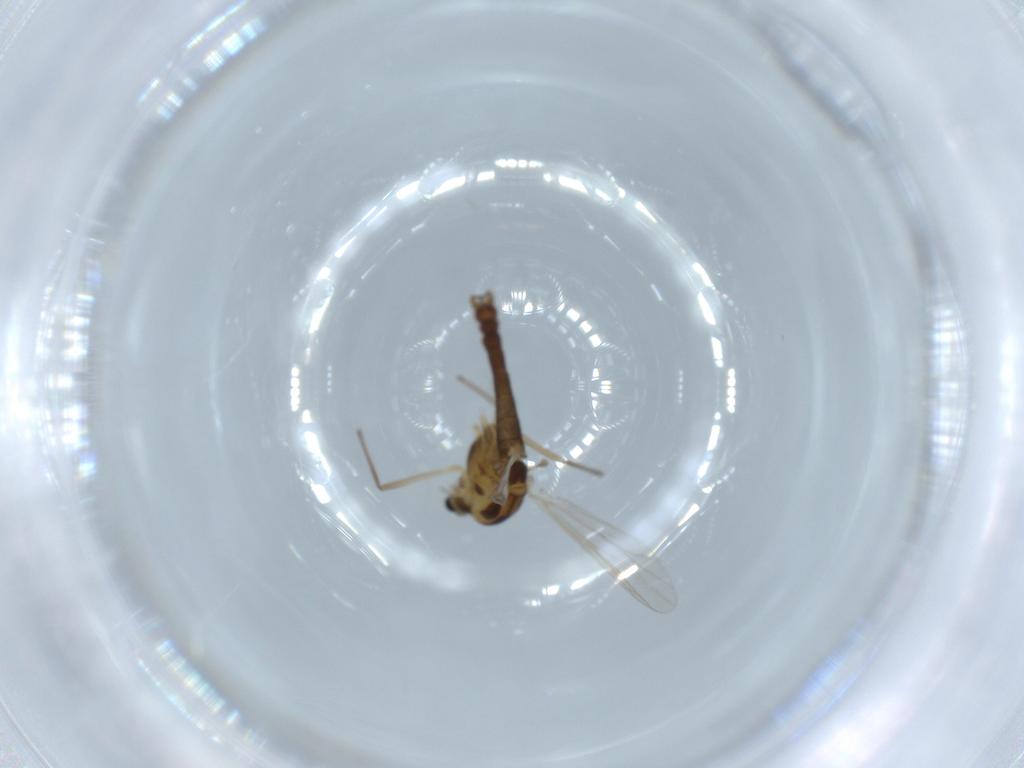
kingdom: Animalia
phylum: Arthropoda
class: Insecta
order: Diptera
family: Chironomidae
